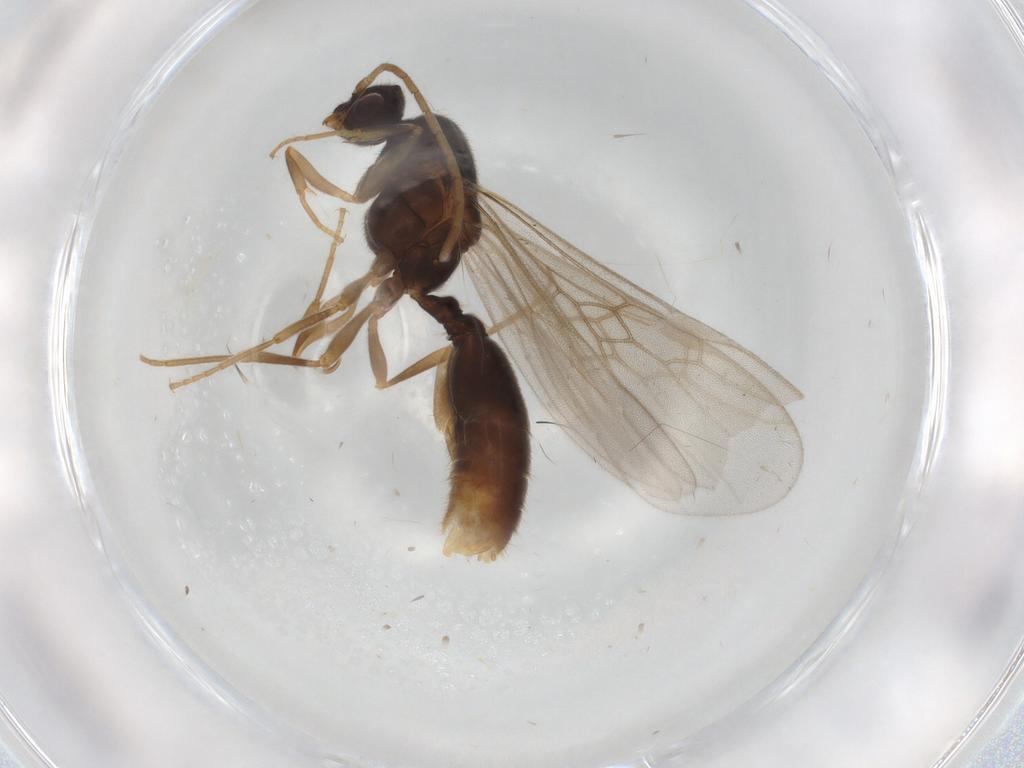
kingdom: Animalia
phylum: Arthropoda
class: Insecta
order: Hymenoptera
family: Formicidae
